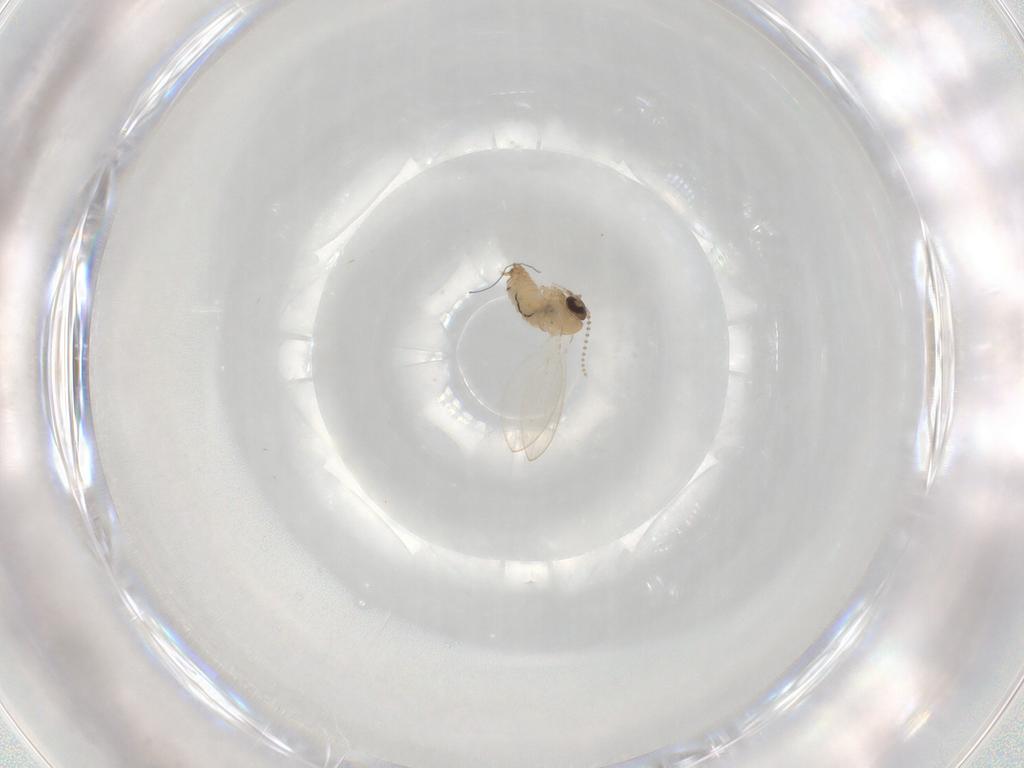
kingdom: Animalia
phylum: Arthropoda
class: Insecta
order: Diptera
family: Psychodidae
